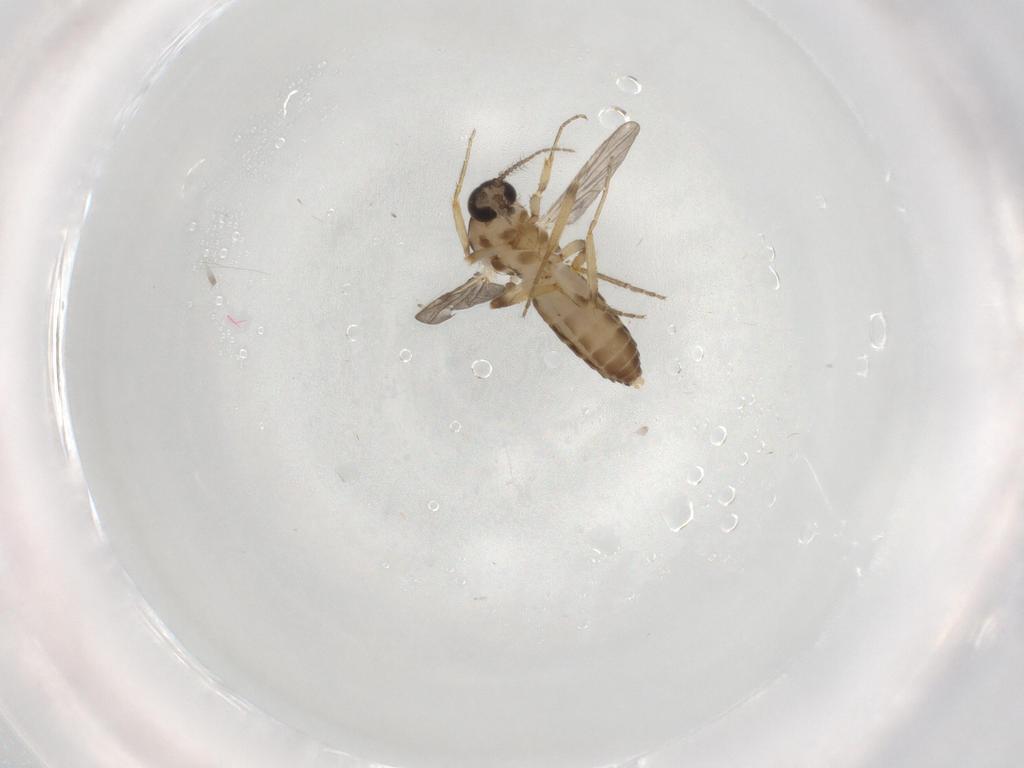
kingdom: Animalia
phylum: Arthropoda
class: Insecta
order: Diptera
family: Ceratopogonidae
